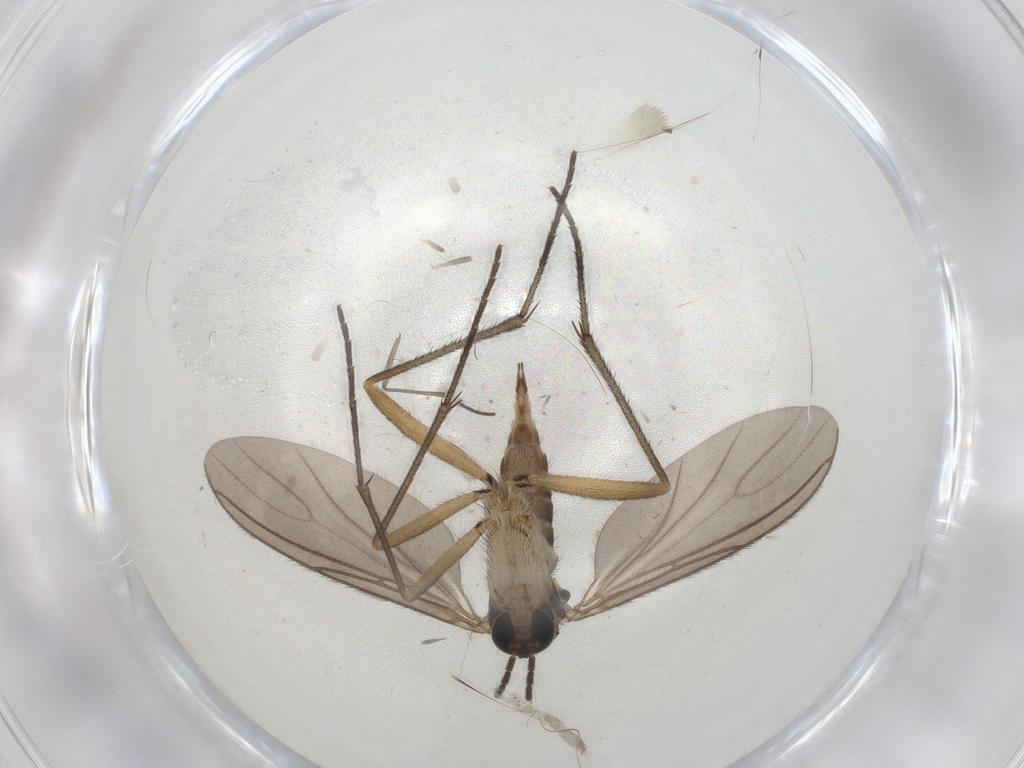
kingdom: Animalia
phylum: Arthropoda
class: Insecta
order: Diptera
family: Sciaridae
